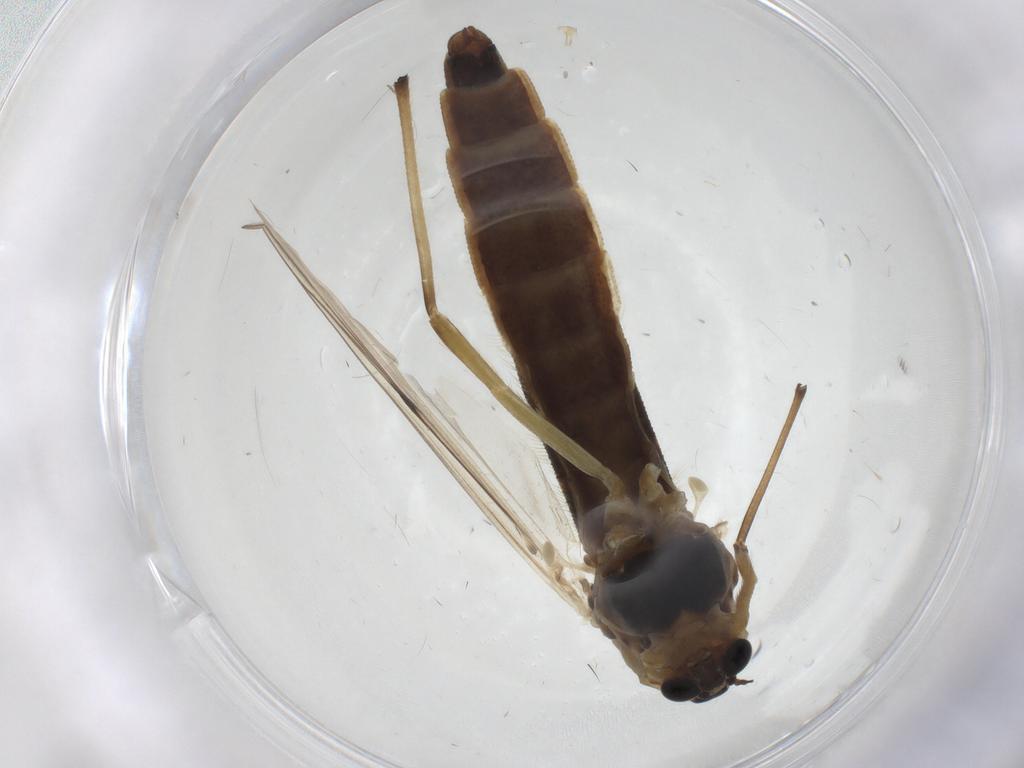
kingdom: Animalia
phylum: Arthropoda
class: Insecta
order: Diptera
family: Chironomidae
